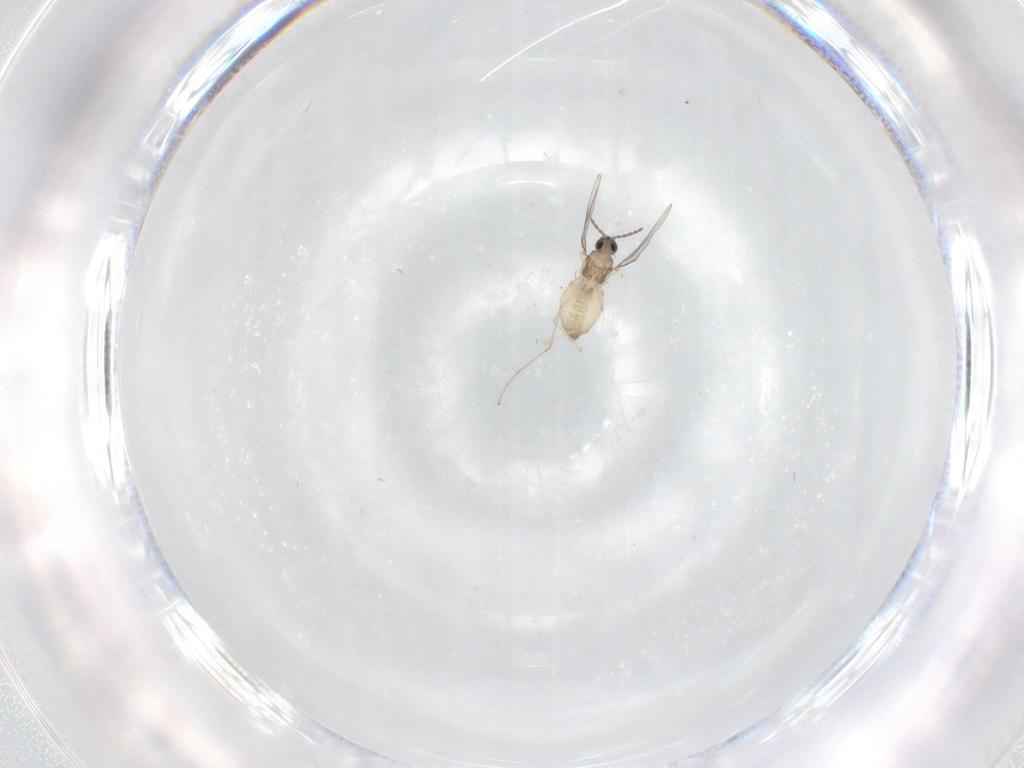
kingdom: Animalia
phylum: Arthropoda
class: Insecta
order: Diptera
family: Cecidomyiidae
